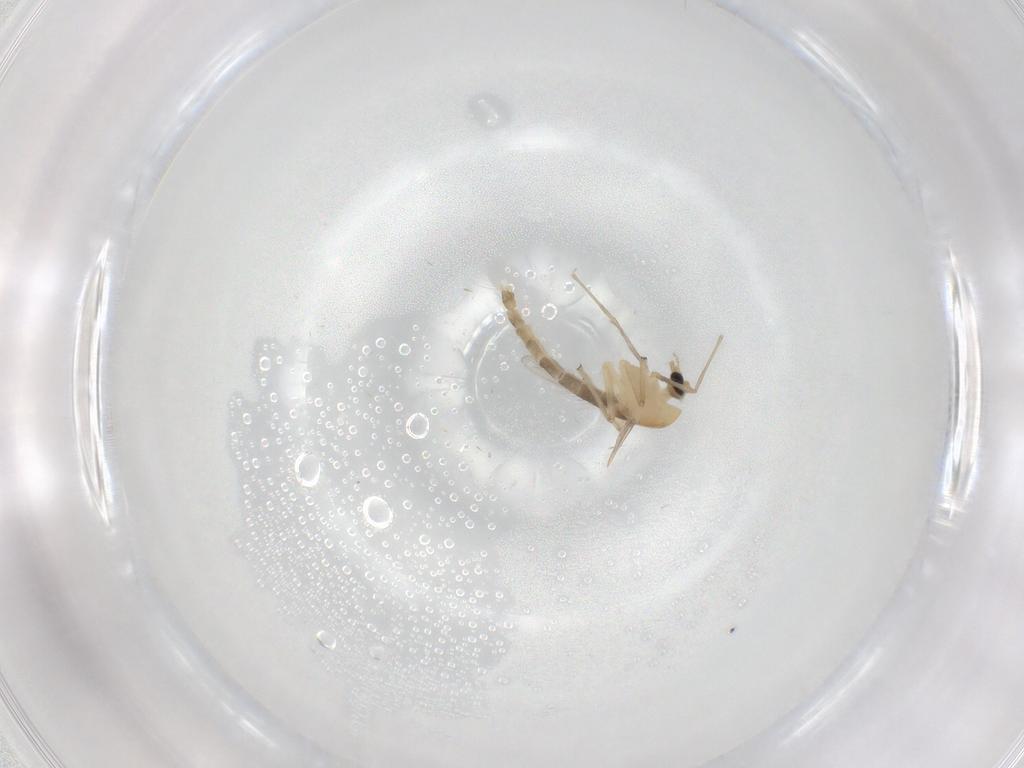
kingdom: Animalia
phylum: Arthropoda
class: Insecta
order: Diptera
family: Chironomidae
